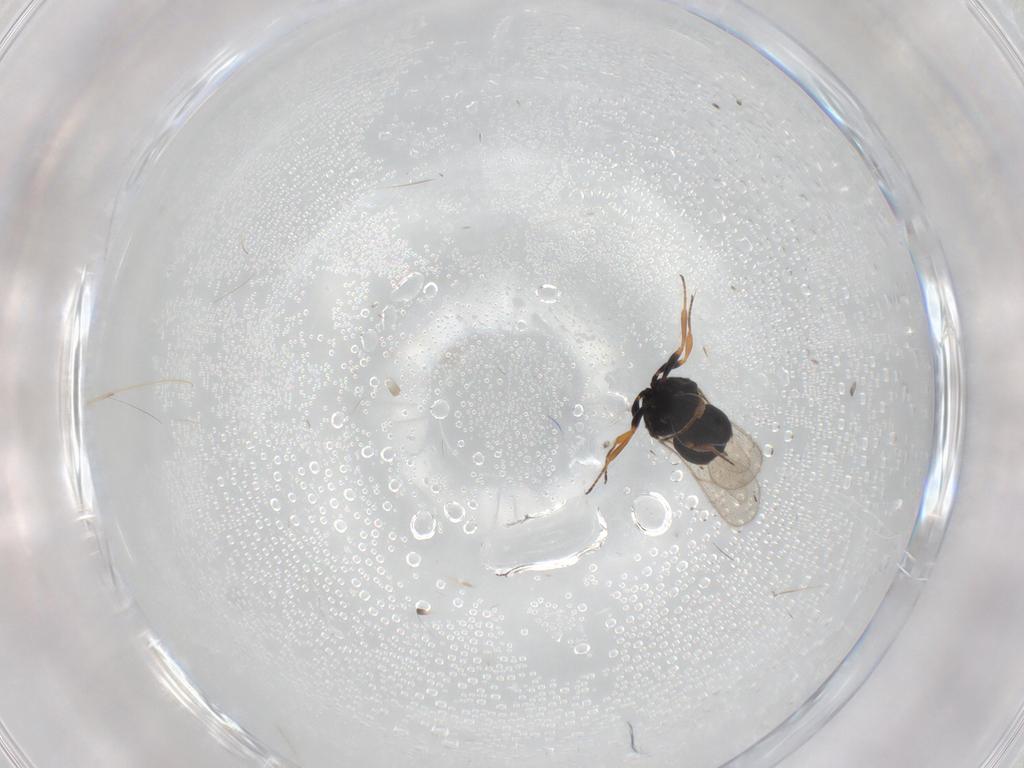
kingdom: Animalia
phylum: Arthropoda
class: Insecta
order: Hymenoptera
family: Scelionidae
